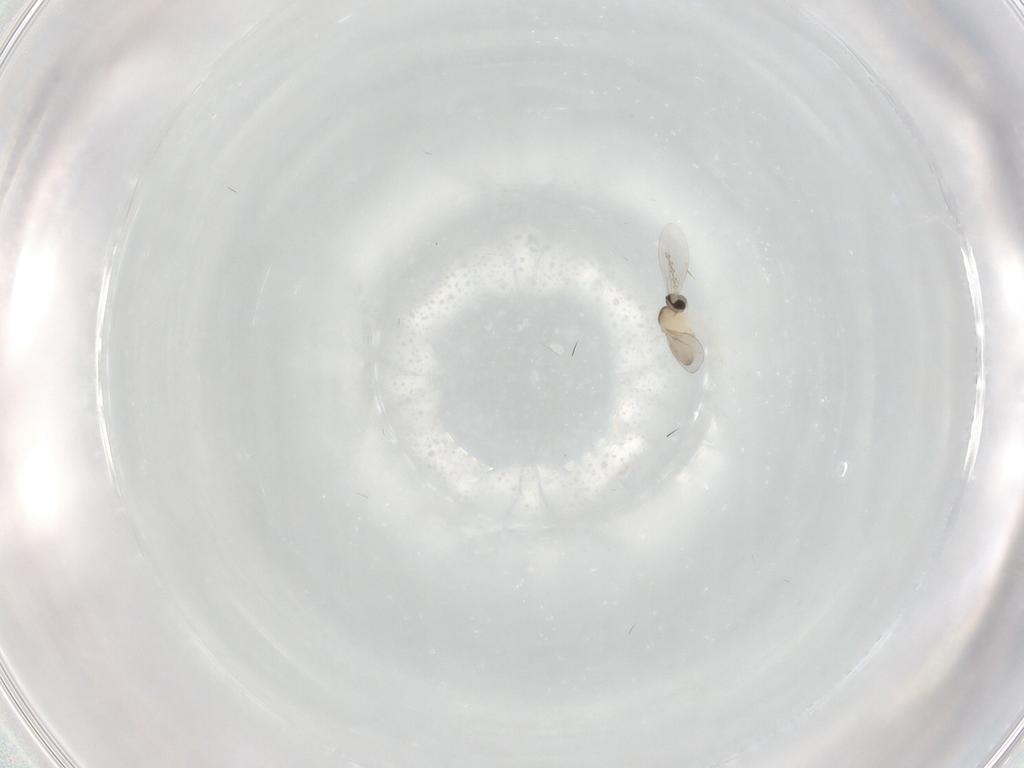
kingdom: Animalia
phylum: Arthropoda
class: Insecta
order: Diptera
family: Cecidomyiidae
